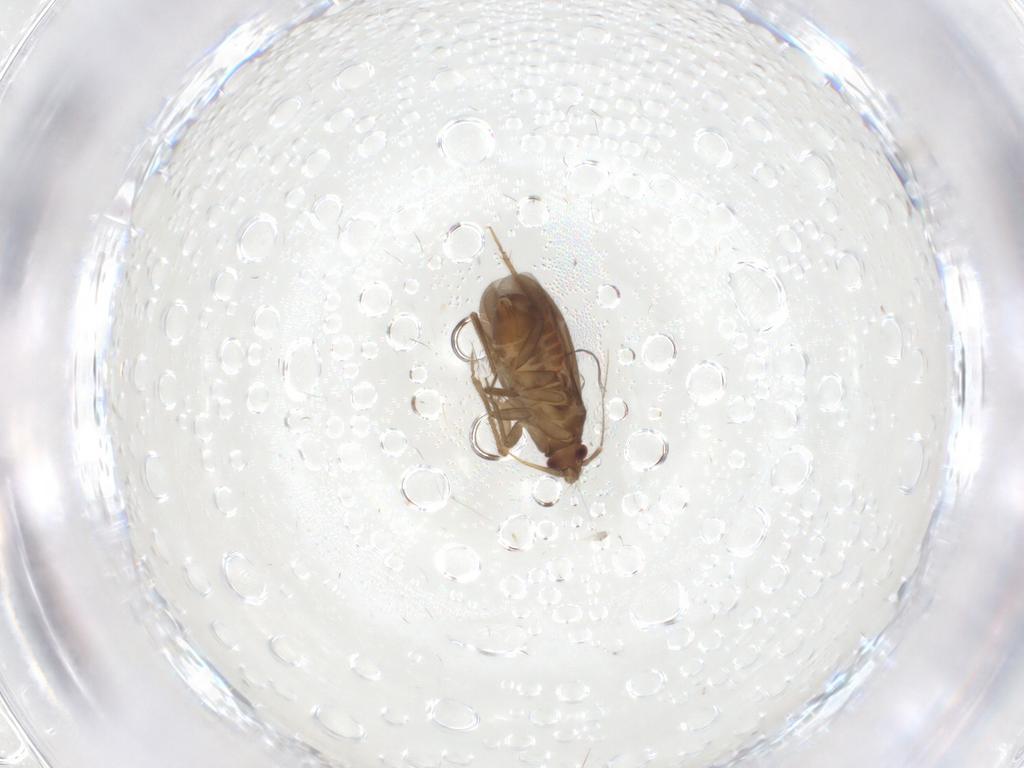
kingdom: Animalia
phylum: Arthropoda
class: Insecta
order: Hemiptera
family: Ceratocombidae
